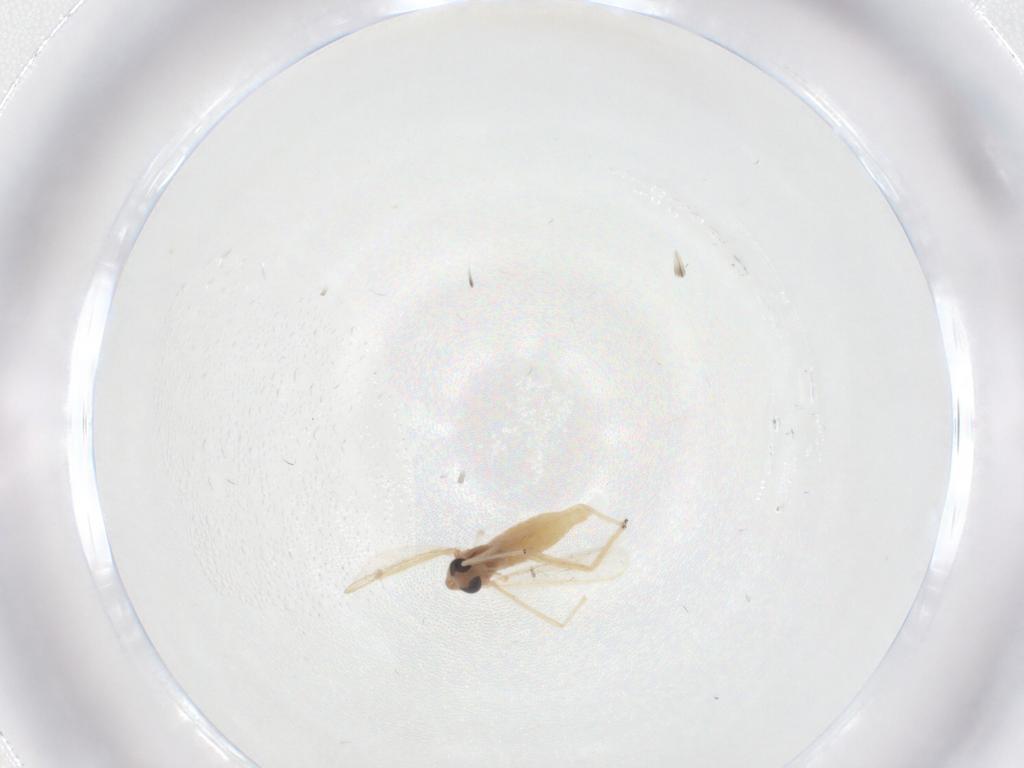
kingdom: Animalia
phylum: Arthropoda
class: Insecta
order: Diptera
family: Chironomidae
